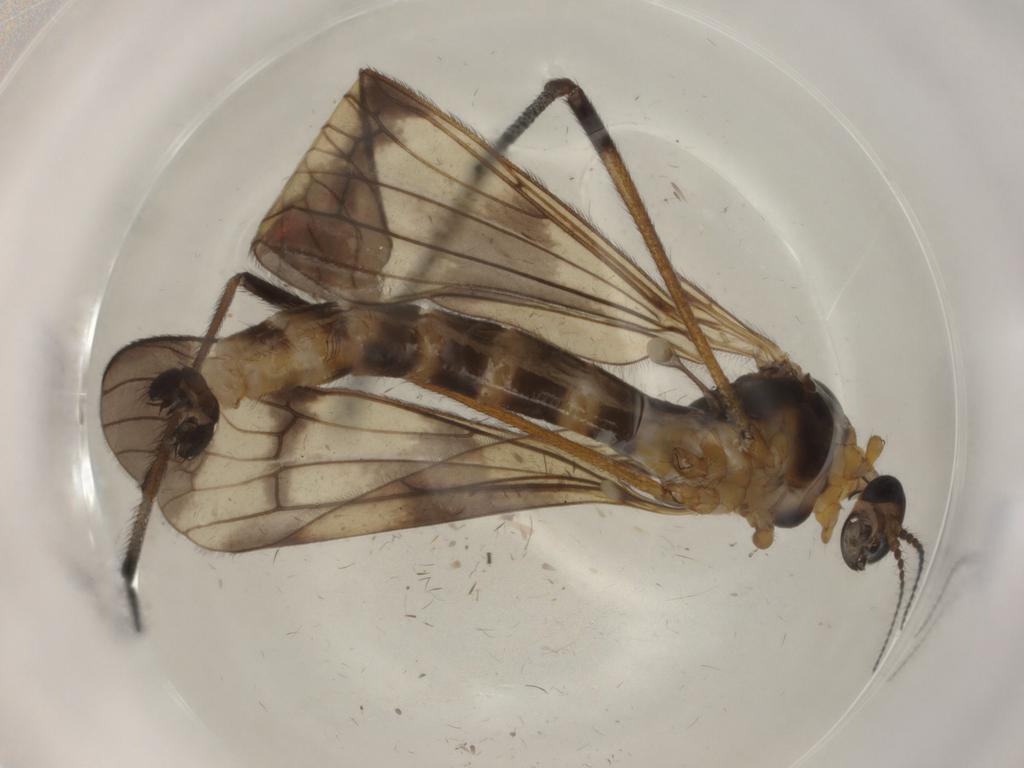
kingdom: Animalia
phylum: Arthropoda
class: Insecta
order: Diptera
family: Limoniidae
